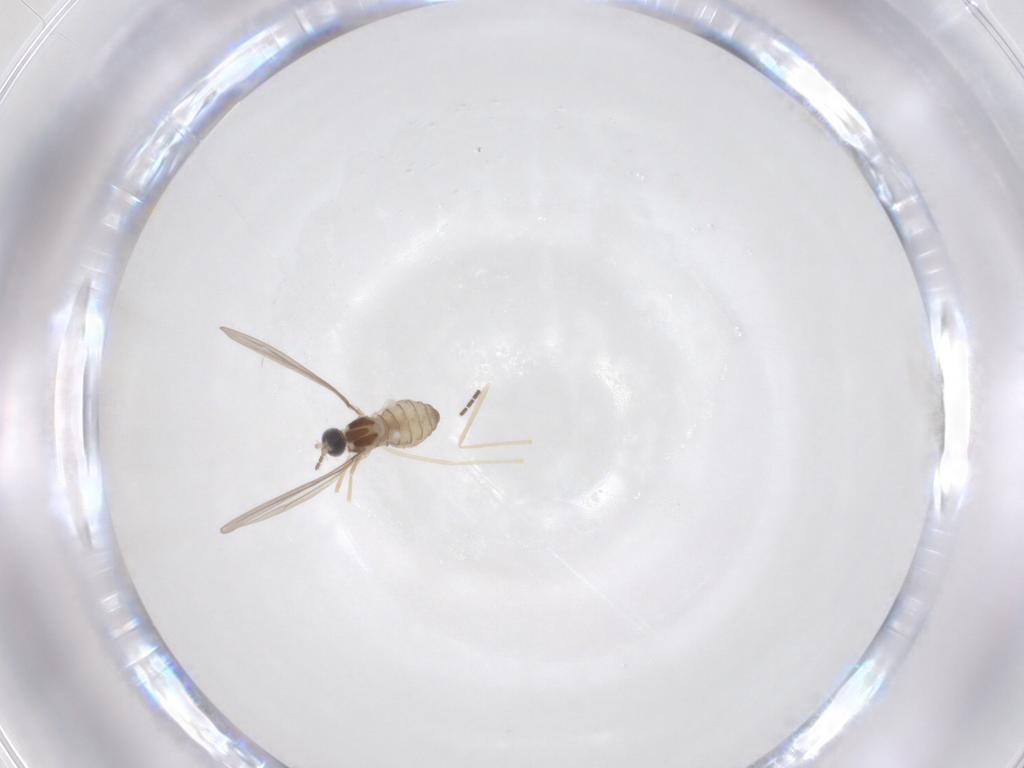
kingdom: Animalia
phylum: Arthropoda
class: Insecta
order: Diptera
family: Cecidomyiidae
